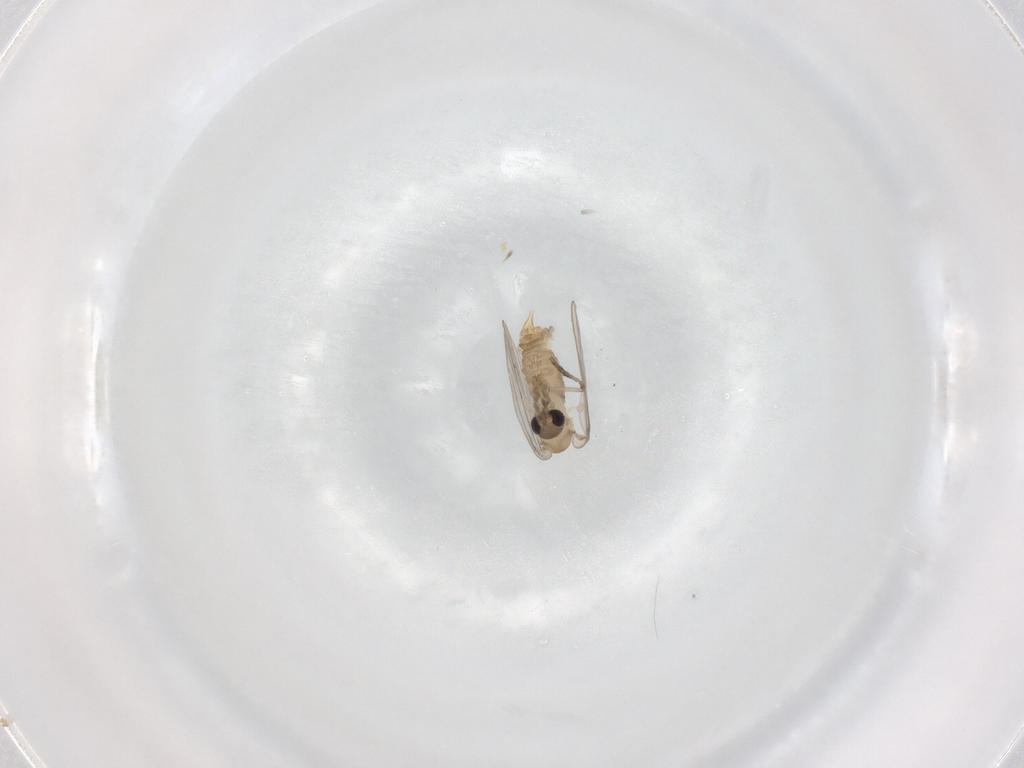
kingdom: Animalia
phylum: Arthropoda
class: Insecta
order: Diptera
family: Psychodidae
